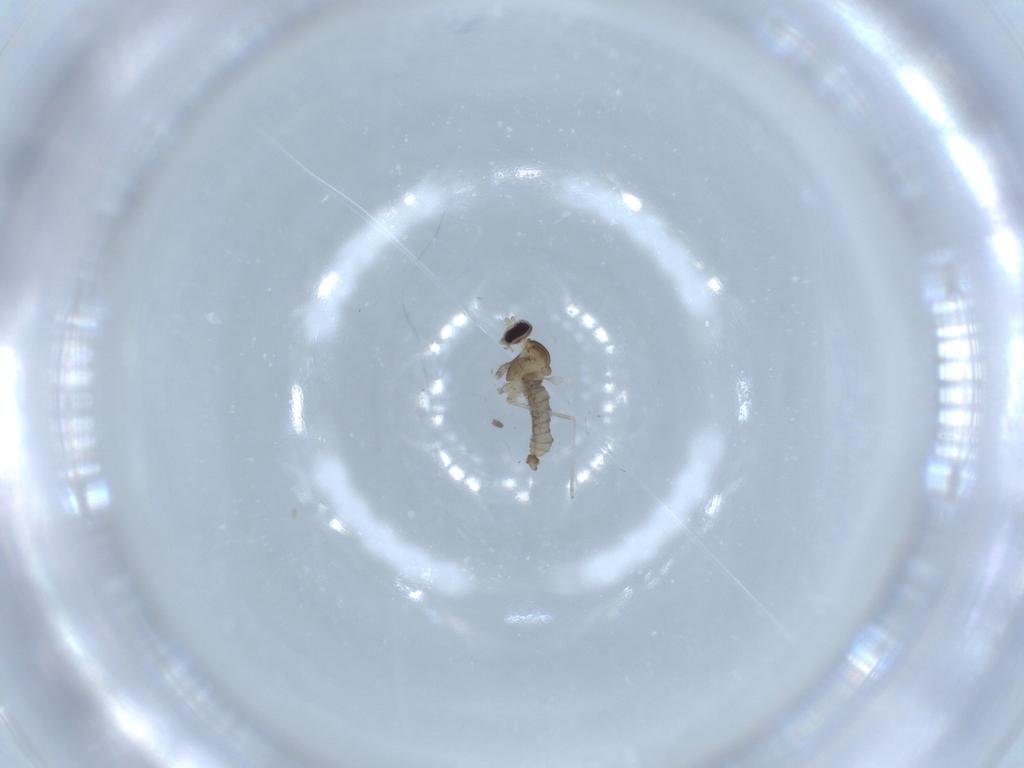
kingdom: Animalia
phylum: Arthropoda
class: Insecta
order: Diptera
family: Cecidomyiidae
